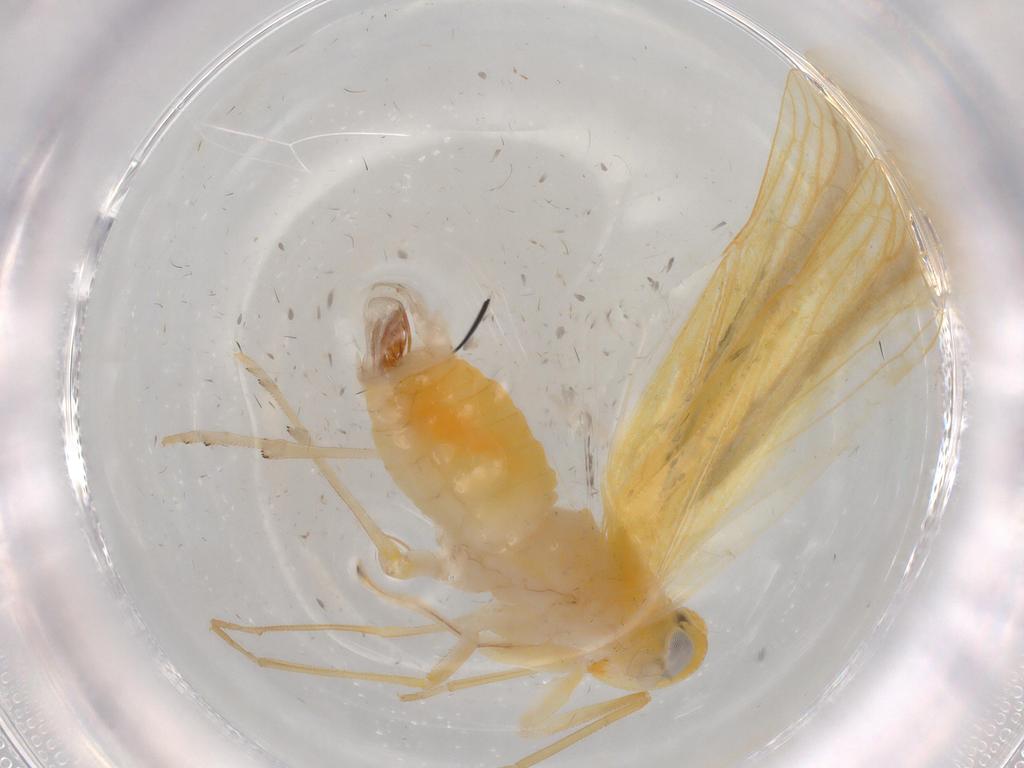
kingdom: Animalia
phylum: Arthropoda
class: Insecta
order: Hemiptera
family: Derbidae
